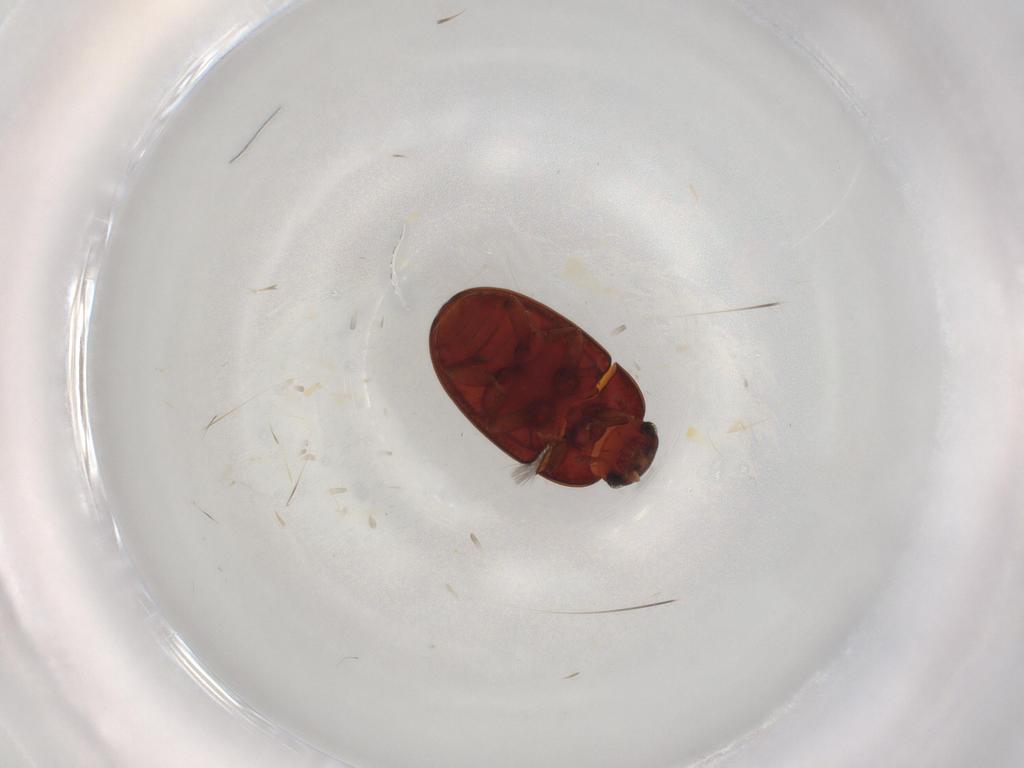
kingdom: Animalia
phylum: Arthropoda
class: Insecta
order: Coleoptera
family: Archeocrypticidae
